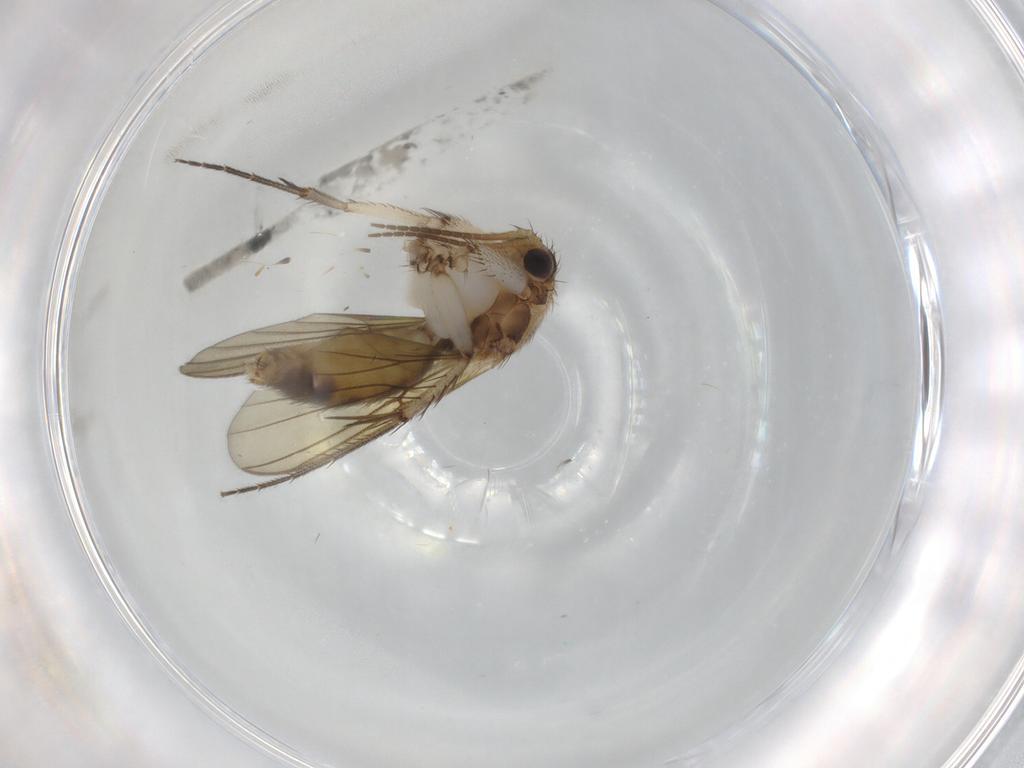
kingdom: Animalia
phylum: Arthropoda
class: Insecta
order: Diptera
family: Mycetophilidae
